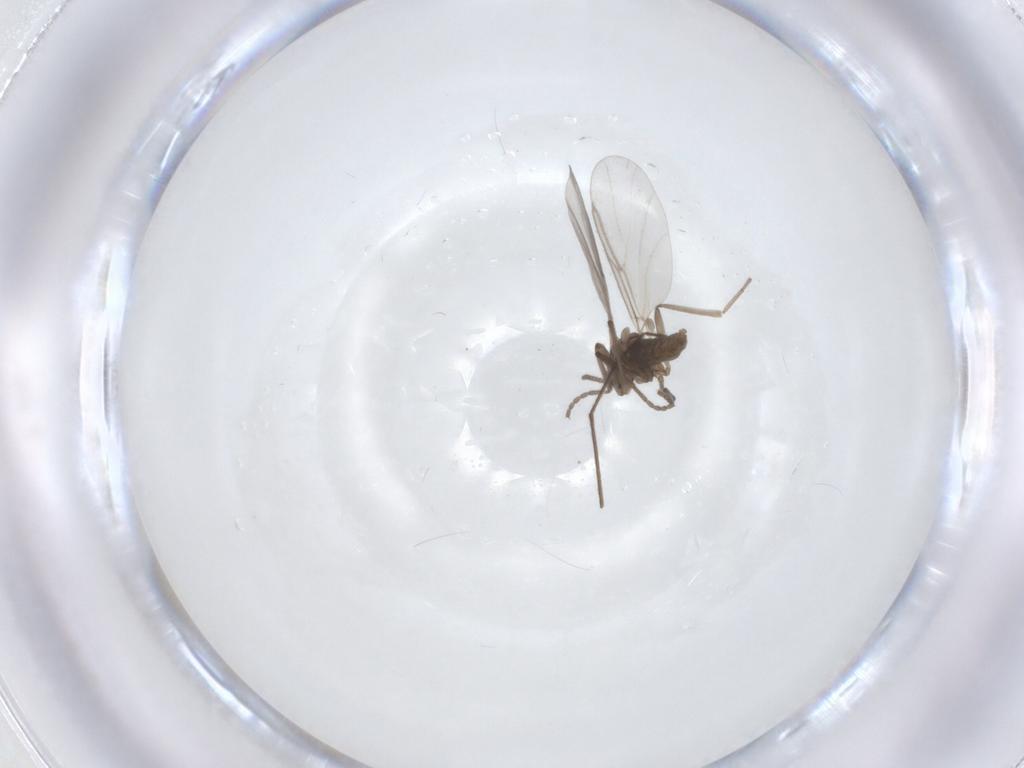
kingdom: Animalia
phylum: Arthropoda
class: Insecta
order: Diptera
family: Cecidomyiidae
